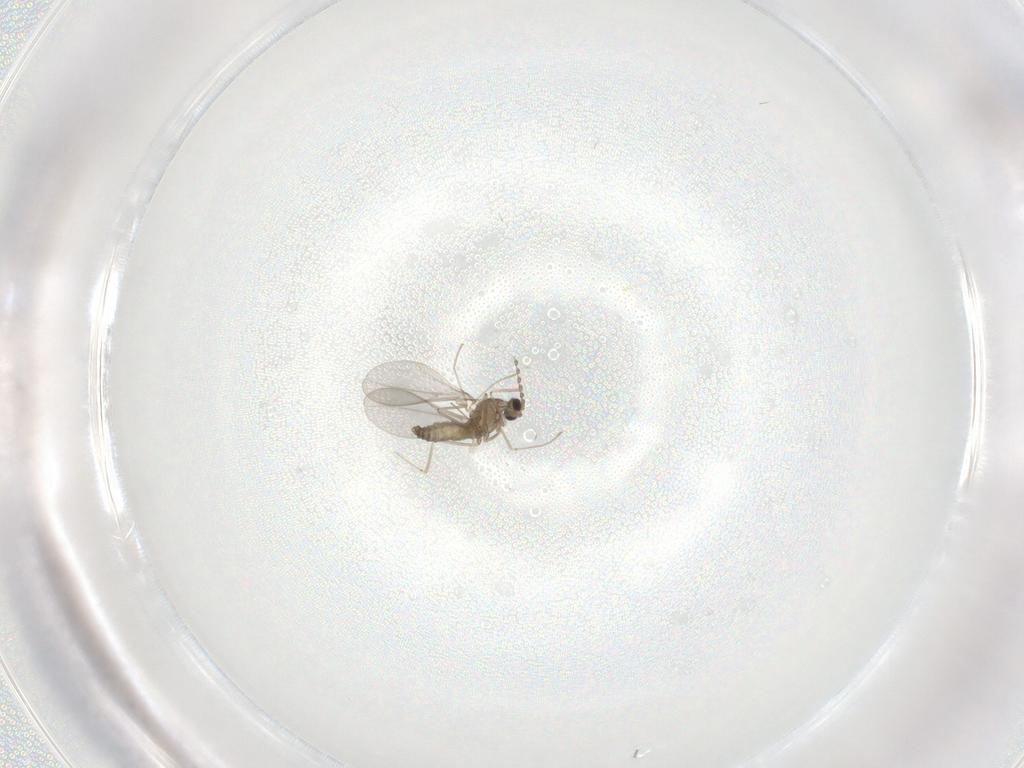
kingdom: Animalia
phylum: Arthropoda
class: Insecta
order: Diptera
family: Cecidomyiidae
